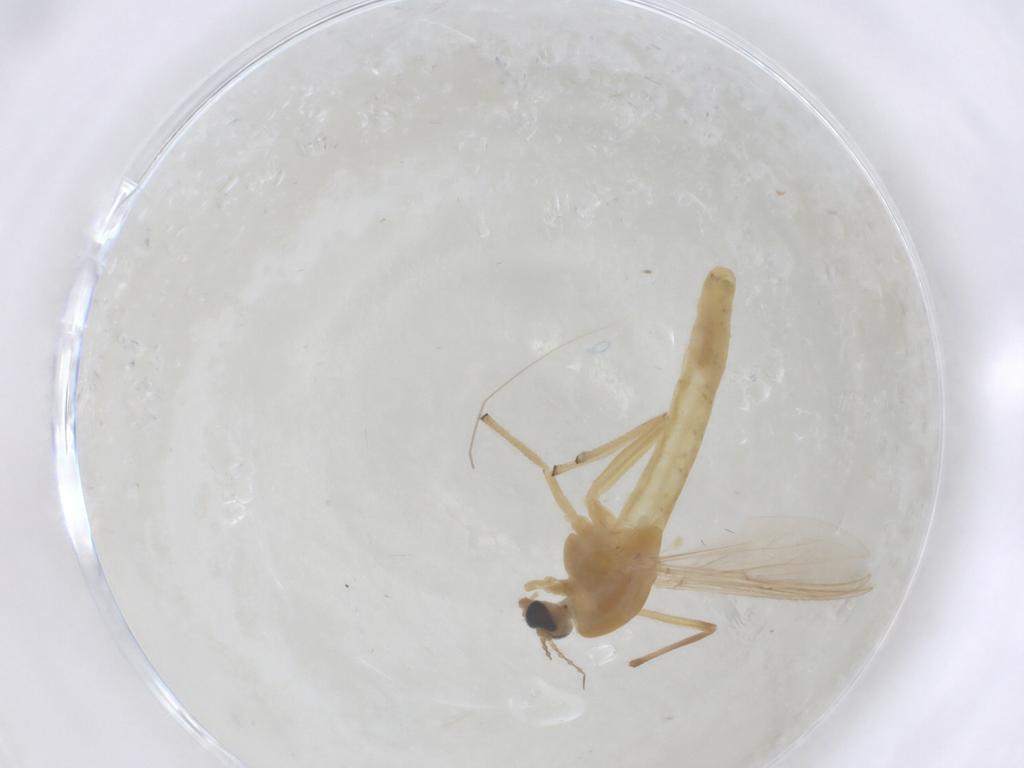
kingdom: Animalia
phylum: Arthropoda
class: Insecta
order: Diptera
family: Chironomidae
